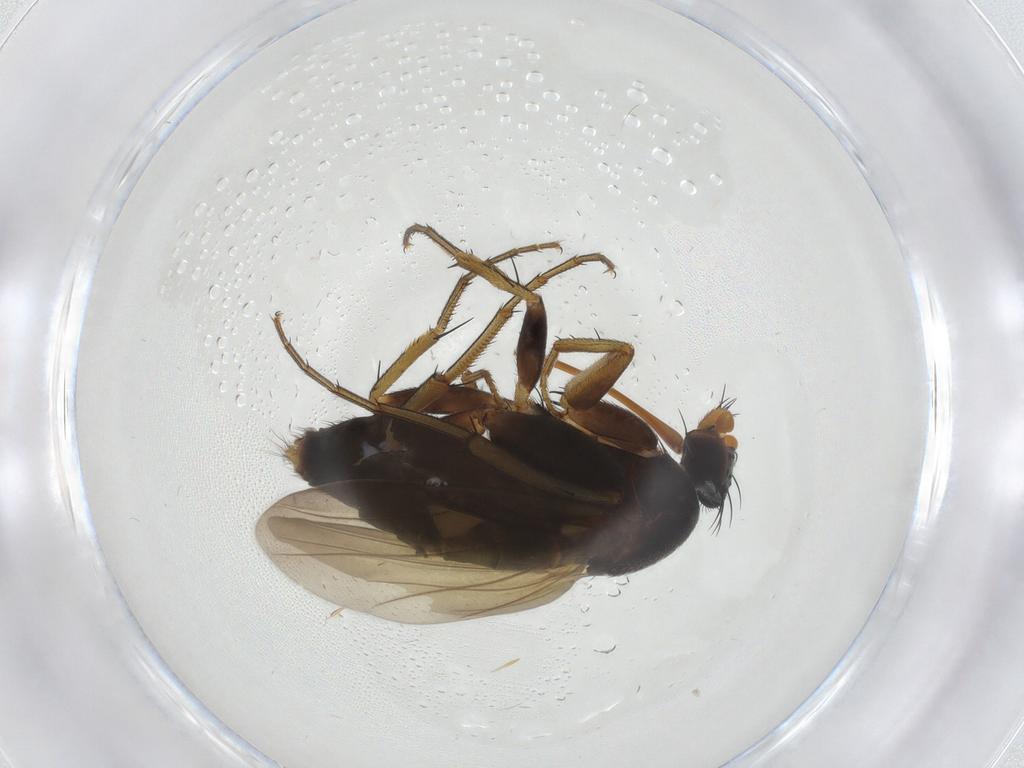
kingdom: Animalia
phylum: Arthropoda
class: Insecta
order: Diptera
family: Phoridae
